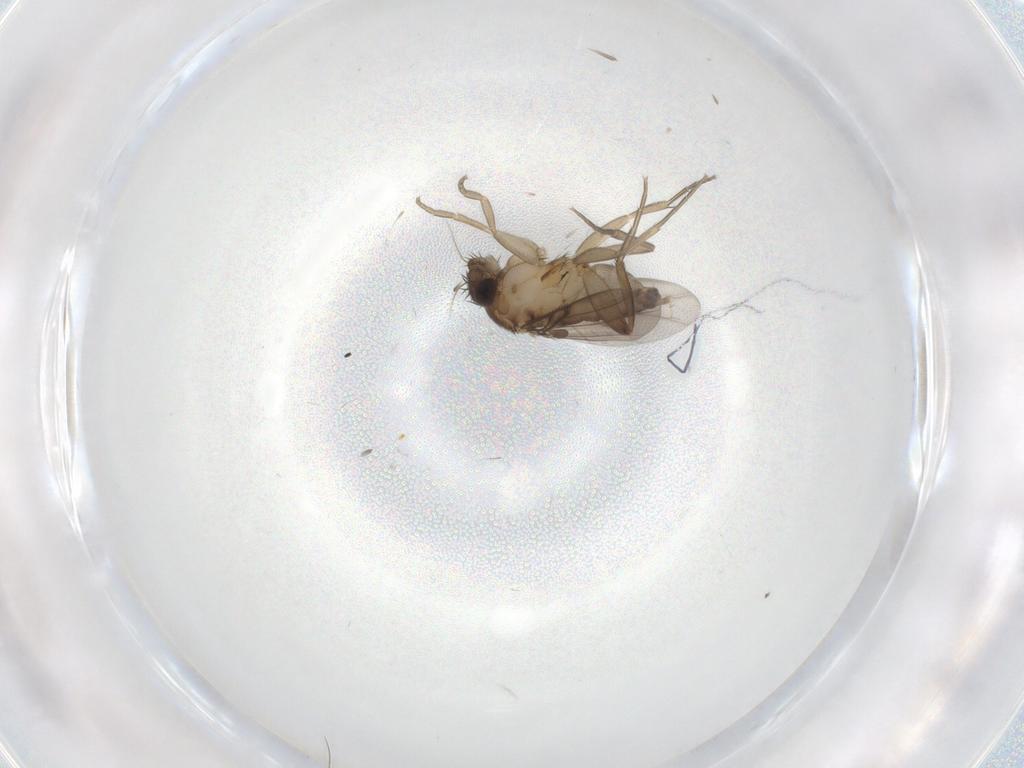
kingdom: Animalia
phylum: Arthropoda
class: Insecta
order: Diptera
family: Phoridae
